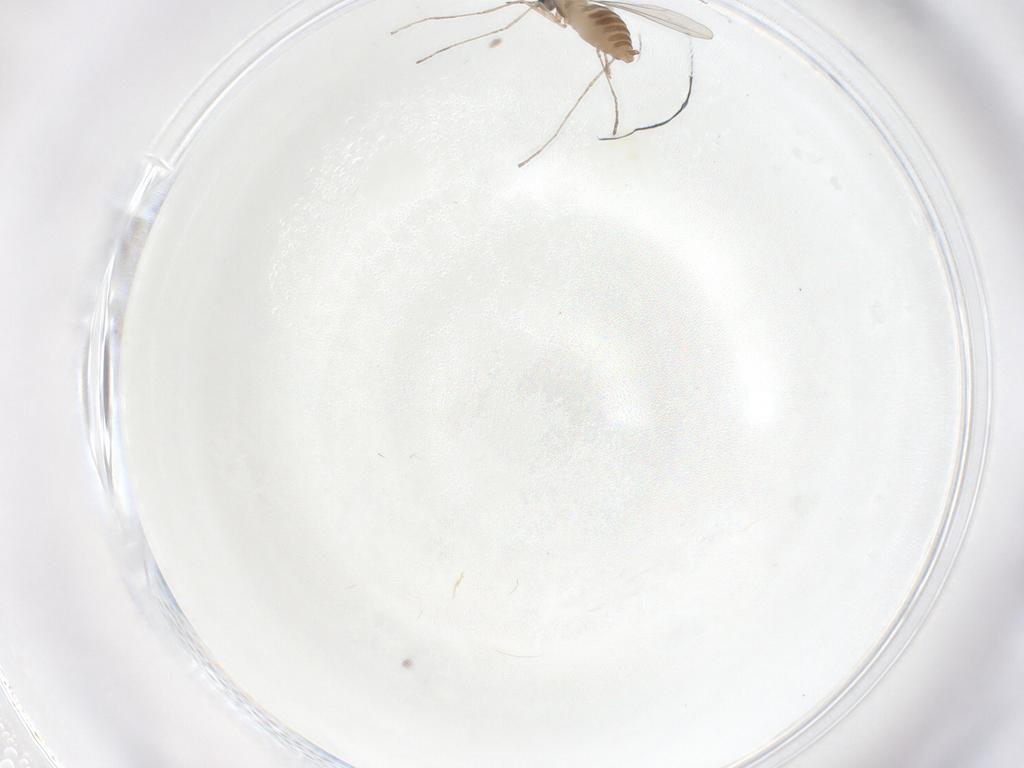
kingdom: Animalia
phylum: Arthropoda
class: Insecta
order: Diptera
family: Cecidomyiidae
